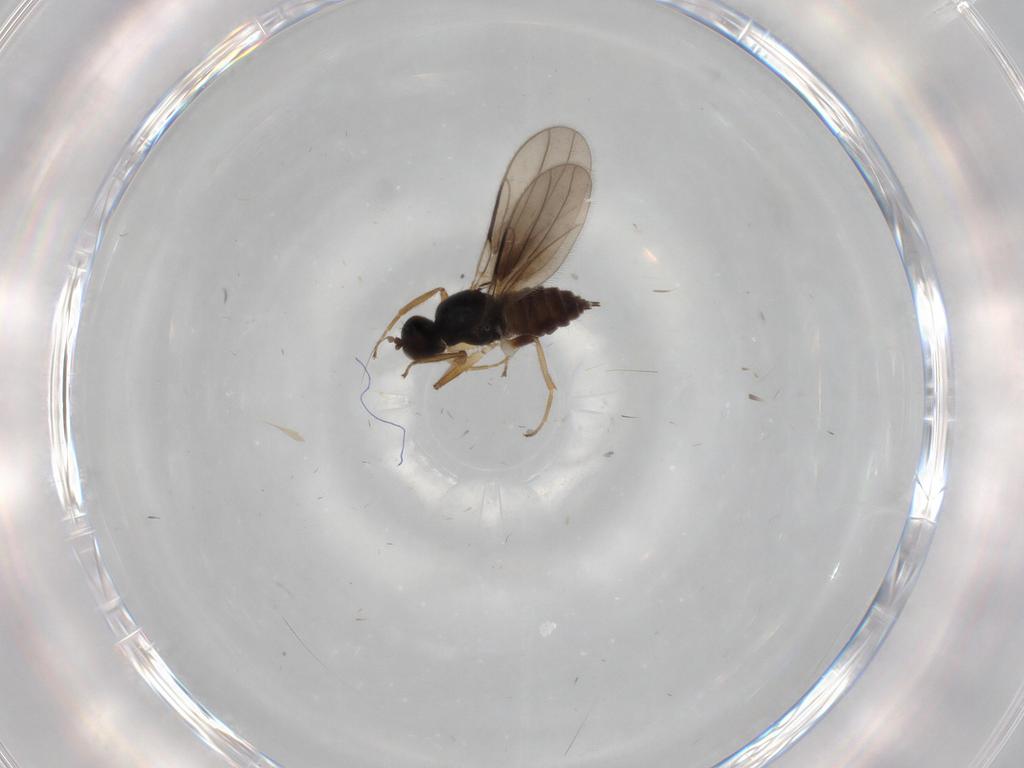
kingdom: Animalia
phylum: Arthropoda
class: Insecta
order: Diptera
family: Hybotidae
